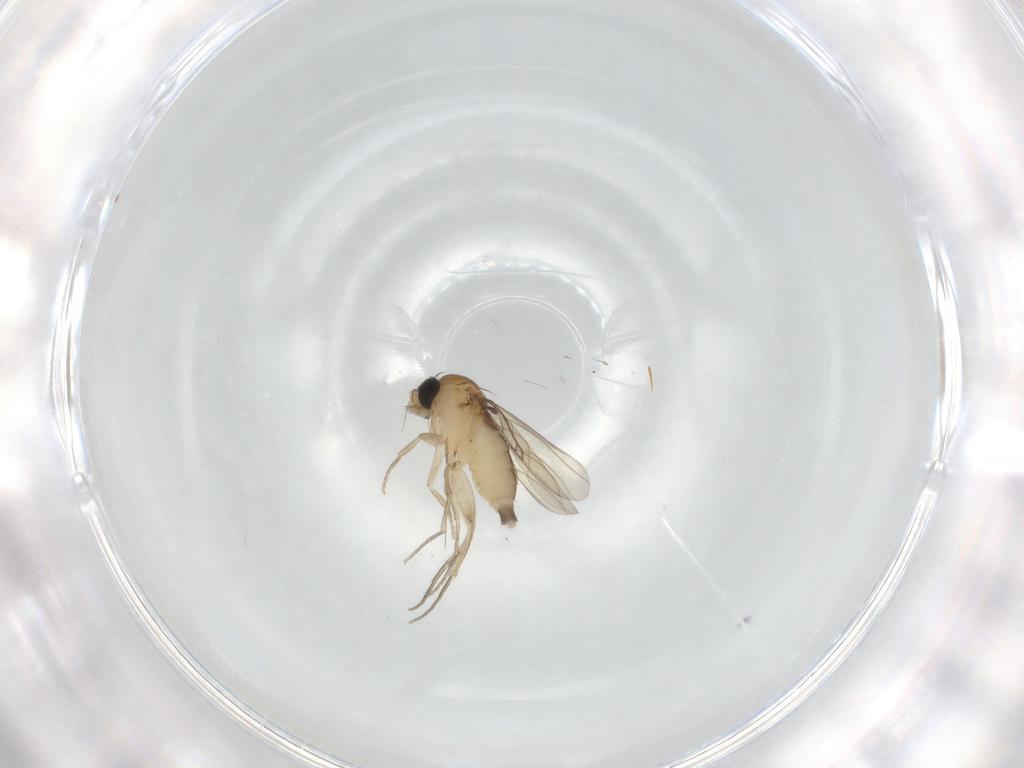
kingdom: Animalia
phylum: Arthropoda
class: Insecta
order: Diptera
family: Phoridae
